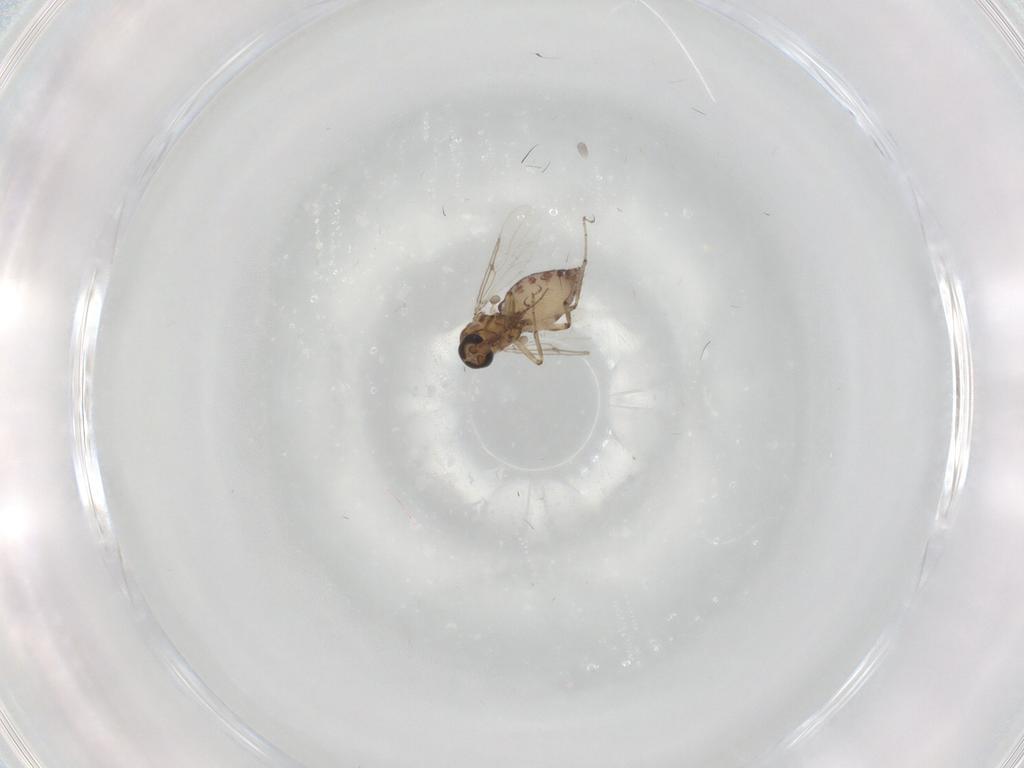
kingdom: Animalia
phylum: Arthropoda
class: Insecta
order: Diptera
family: Ceratopogonidae
